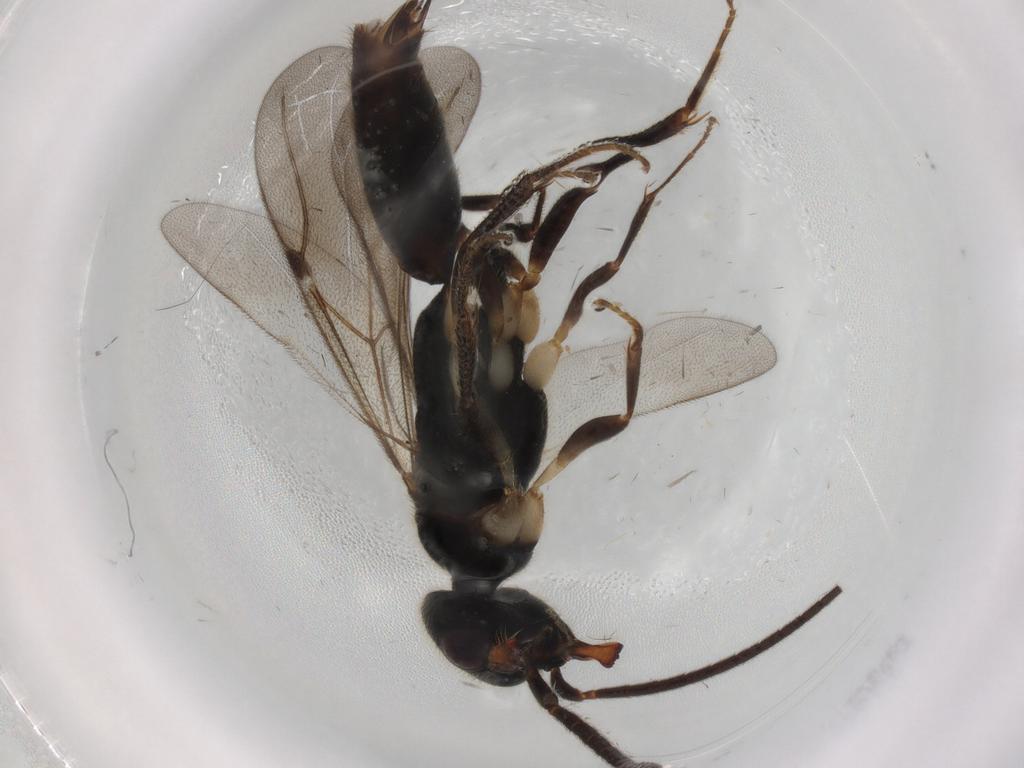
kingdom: Animalia
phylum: Arthropoda
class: Insecta
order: Hymenoptera
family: Bethylidae
